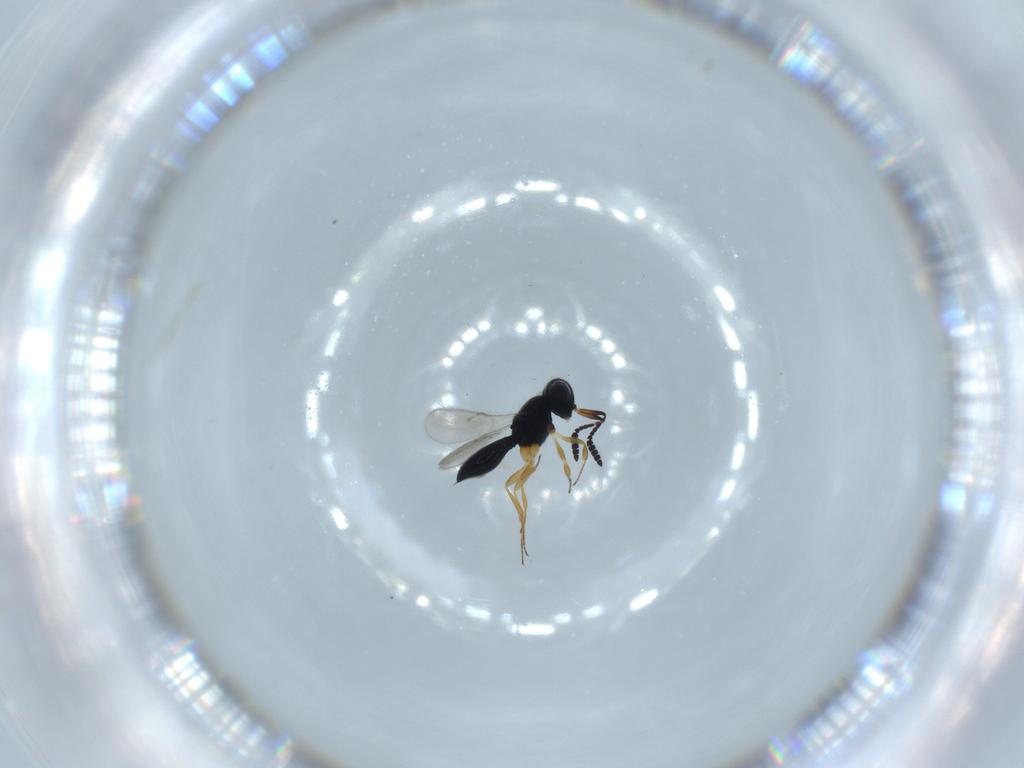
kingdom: Animalia
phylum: Arthropoda
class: Insecta
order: Hymenoptera
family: Scelionidae
